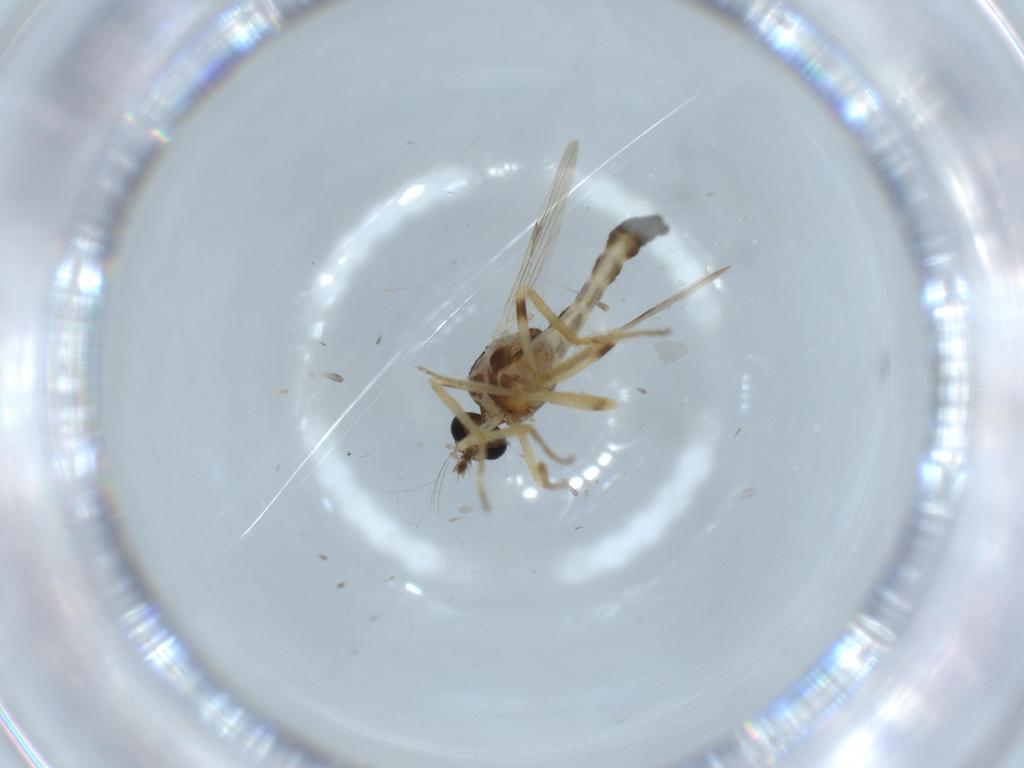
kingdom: Animalia
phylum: Arthropoda
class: Insecta
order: Diptera
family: Ceratopogonidae
